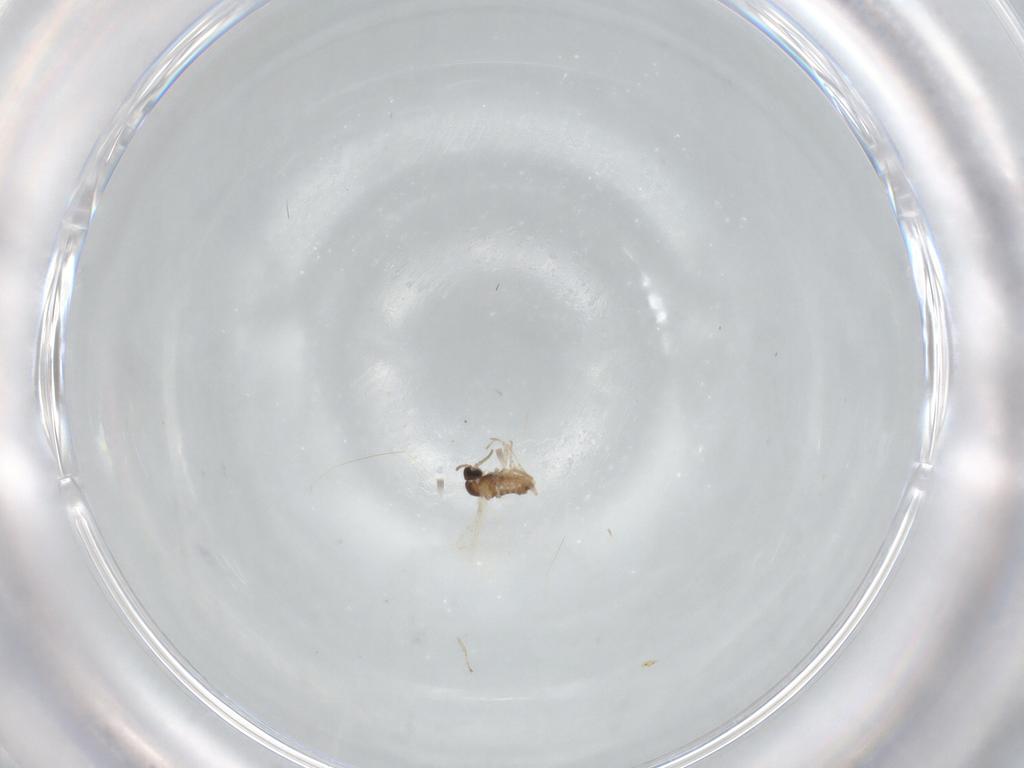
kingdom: Animalia
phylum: Arthropoda
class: Insecta
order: Diptera
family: Cecidomyiidae
